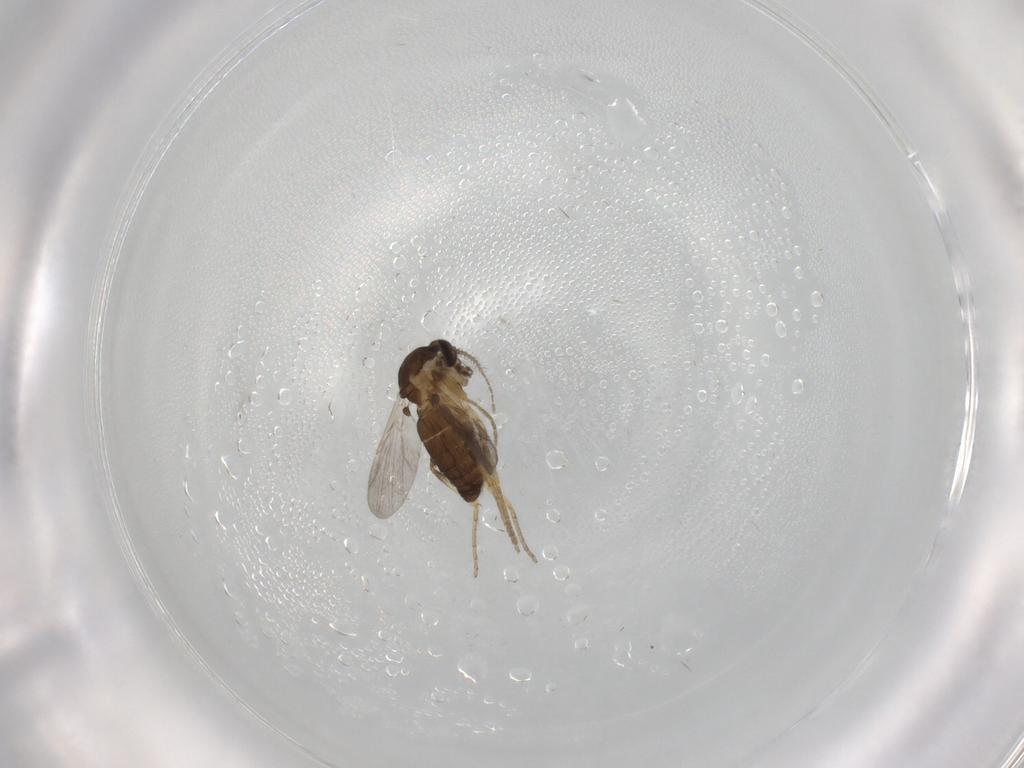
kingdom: Animalia
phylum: Arthropoda
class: Insecta
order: Diptera
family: Ceratopogonidae
